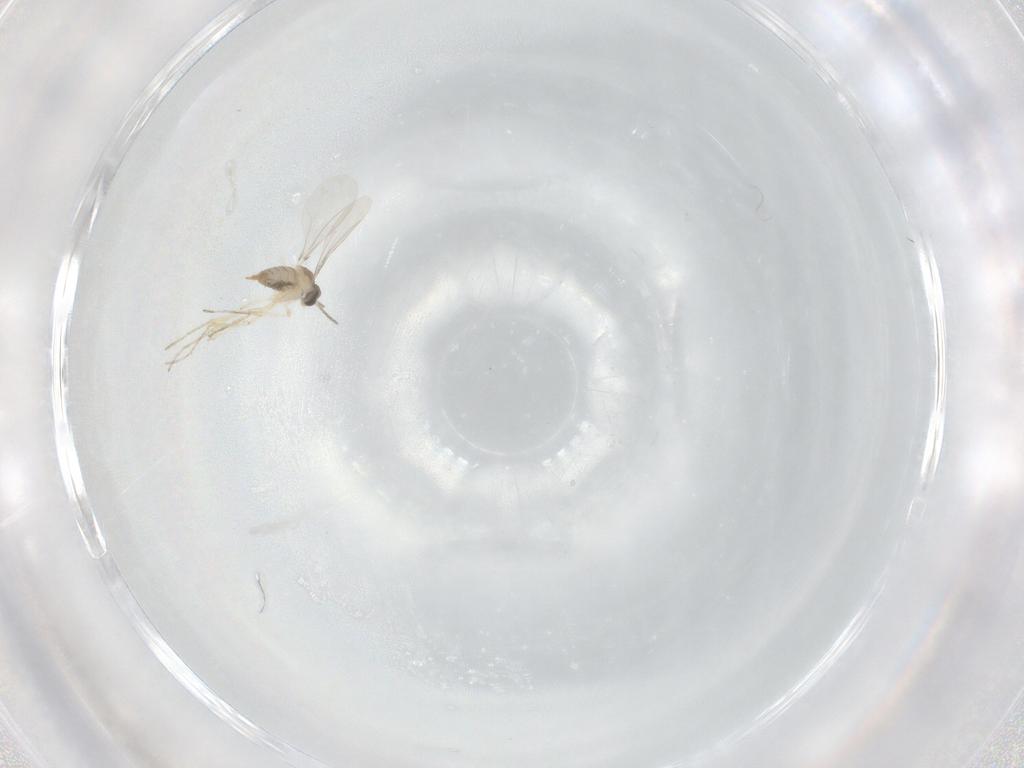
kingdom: Animalia
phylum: Arthropoda
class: Insecta
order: Diptera
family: Cecidomyiidae
